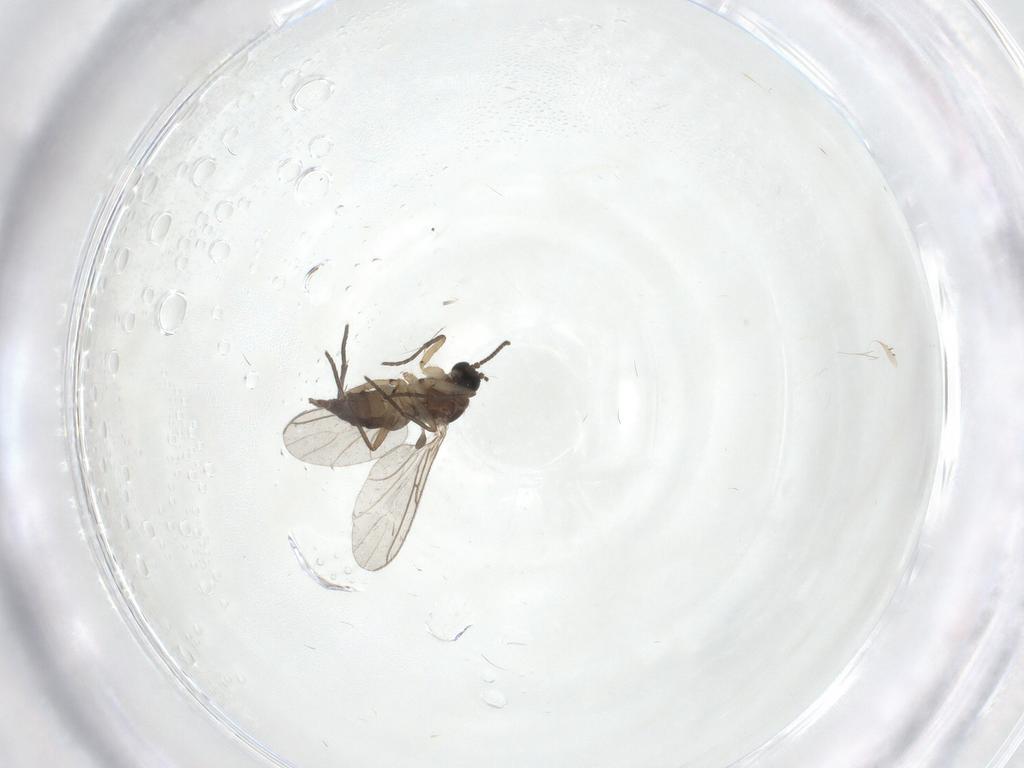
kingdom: Animalia
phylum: Arthropoda
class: Insecta
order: Diptera
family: Sciaridae
